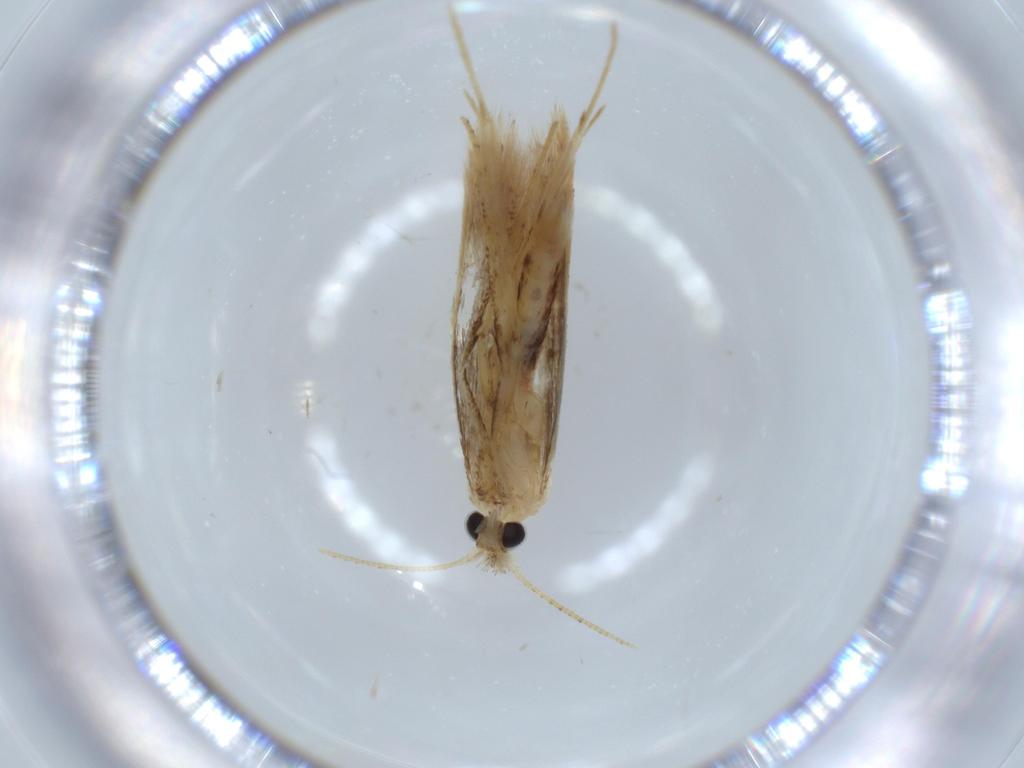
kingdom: Animalia
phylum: Arthropoda
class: Insecta
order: Lepidoptera
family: Bedelliidae
